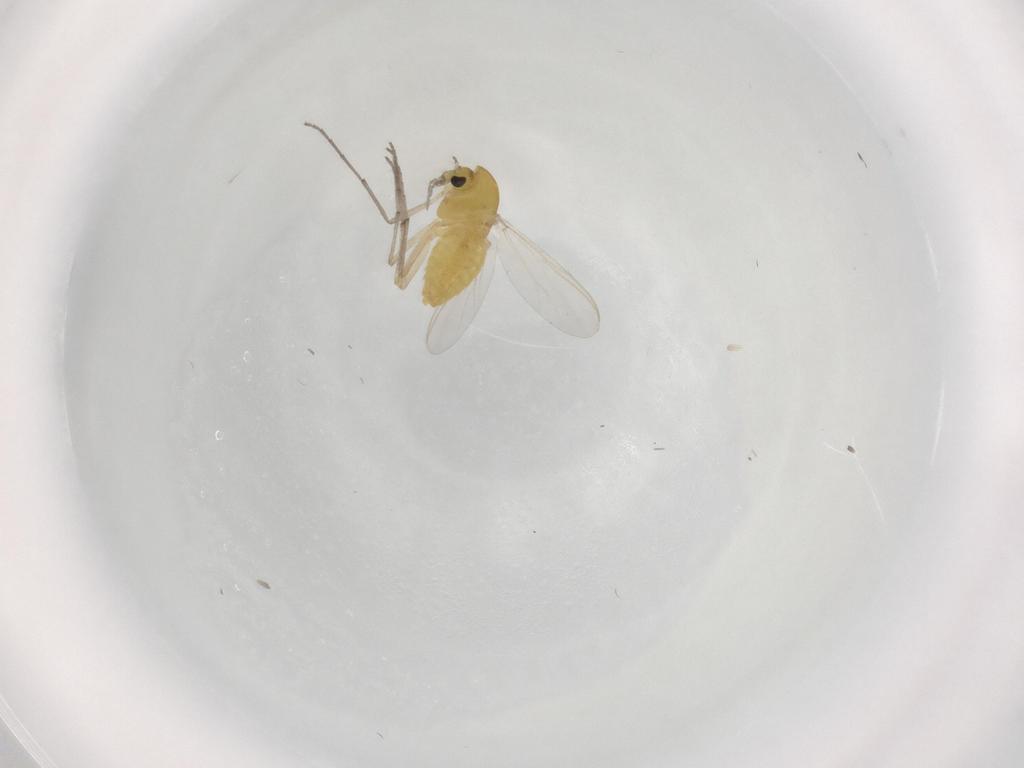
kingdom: Animalia
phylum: Arthropoda
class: Insecta
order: Diptera
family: Chironomidae
